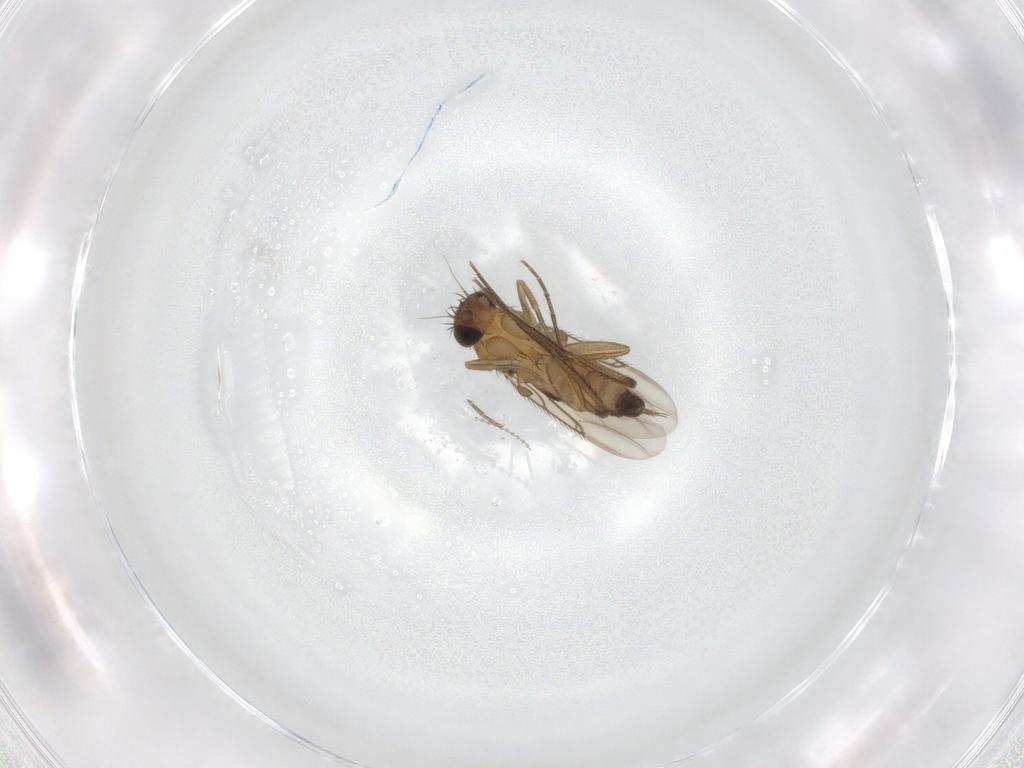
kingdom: Animalia
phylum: Arthropoda
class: Insecta
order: Diptera
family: Phoridae
